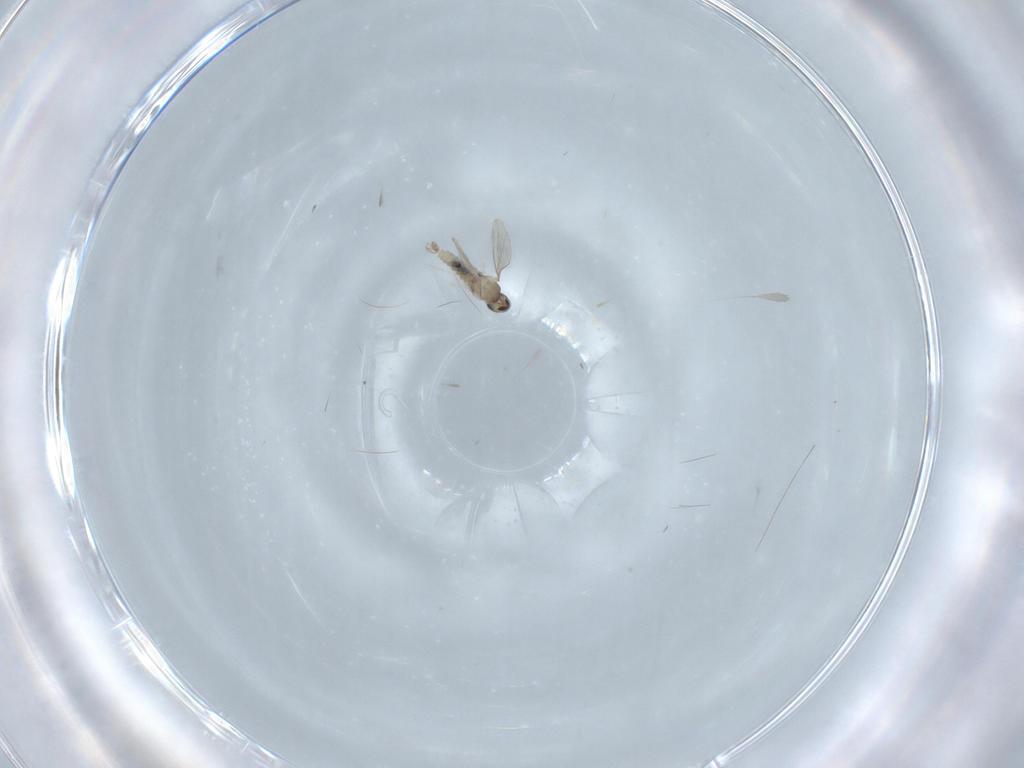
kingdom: Animalia
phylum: Arthropoda
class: Insecta
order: Diptera
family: Cecidomyiidae
